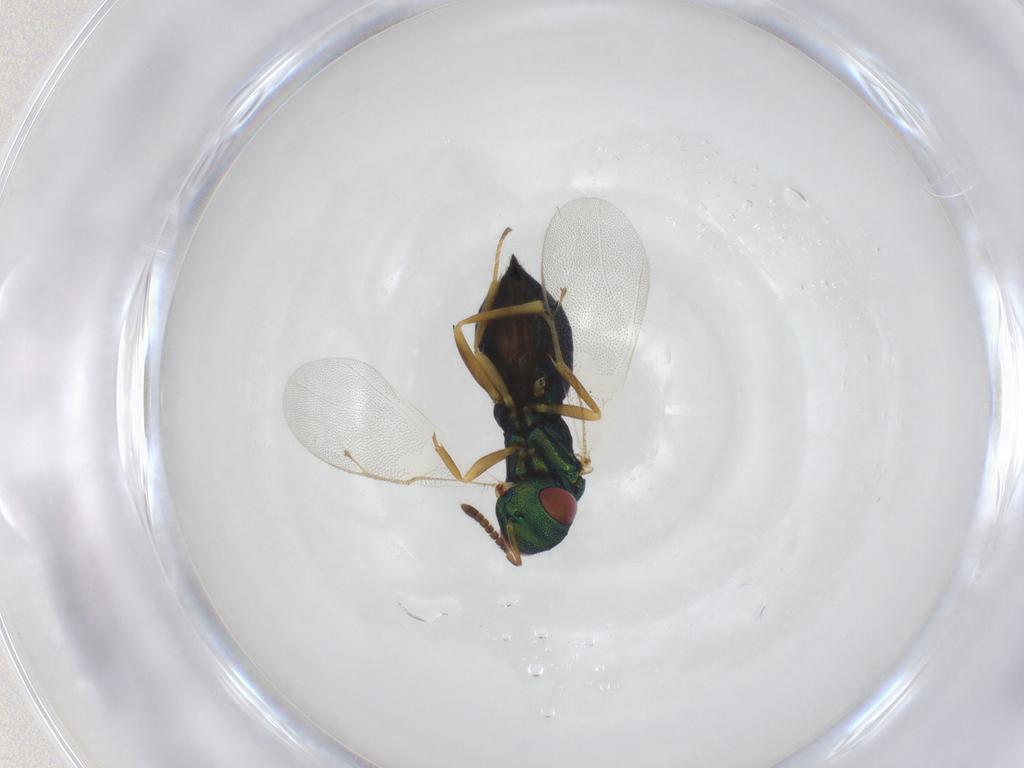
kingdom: Animalia
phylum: Arthropoda
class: Insecta
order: Hymenoptera
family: Pteromalidae
